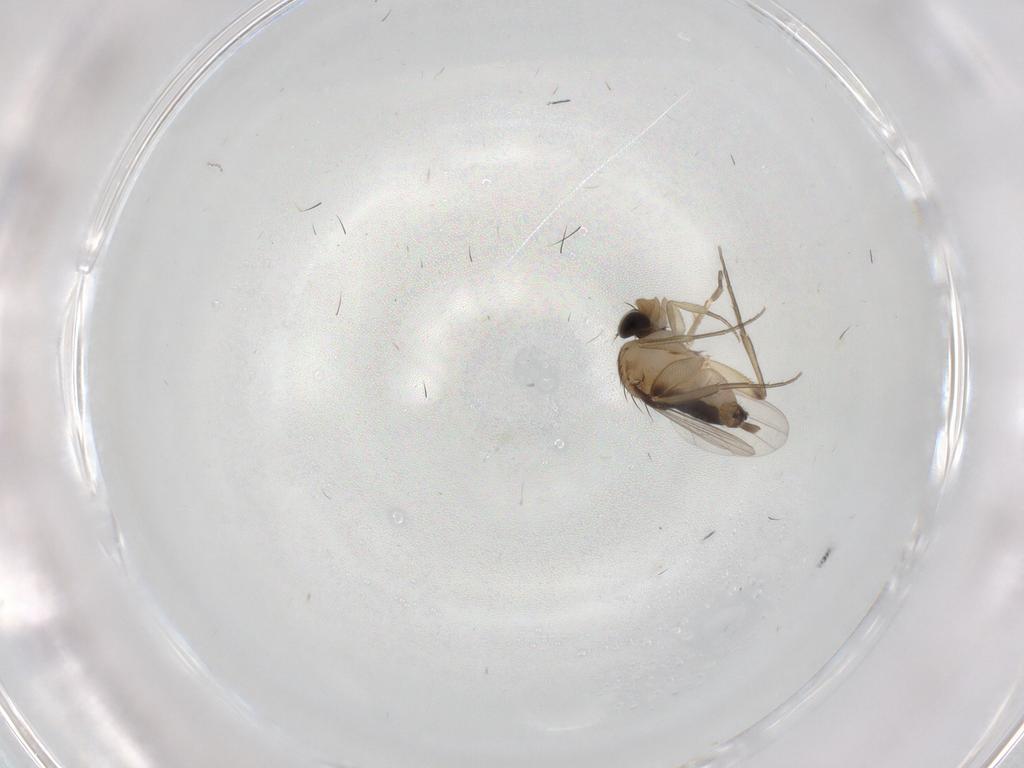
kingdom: Animalia
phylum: Arthropoda
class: Insecta
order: Diptera
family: Phoridae
